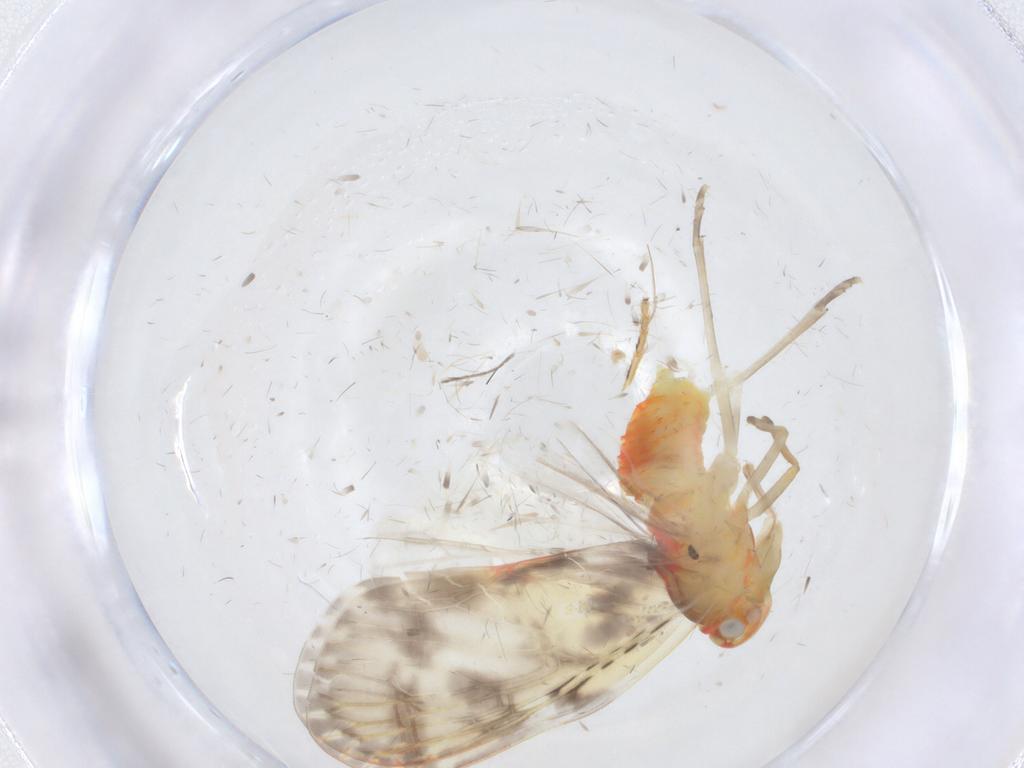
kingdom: Animalia
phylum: Arthropoda
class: Insecta
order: Hemiptera
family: Derbidae
